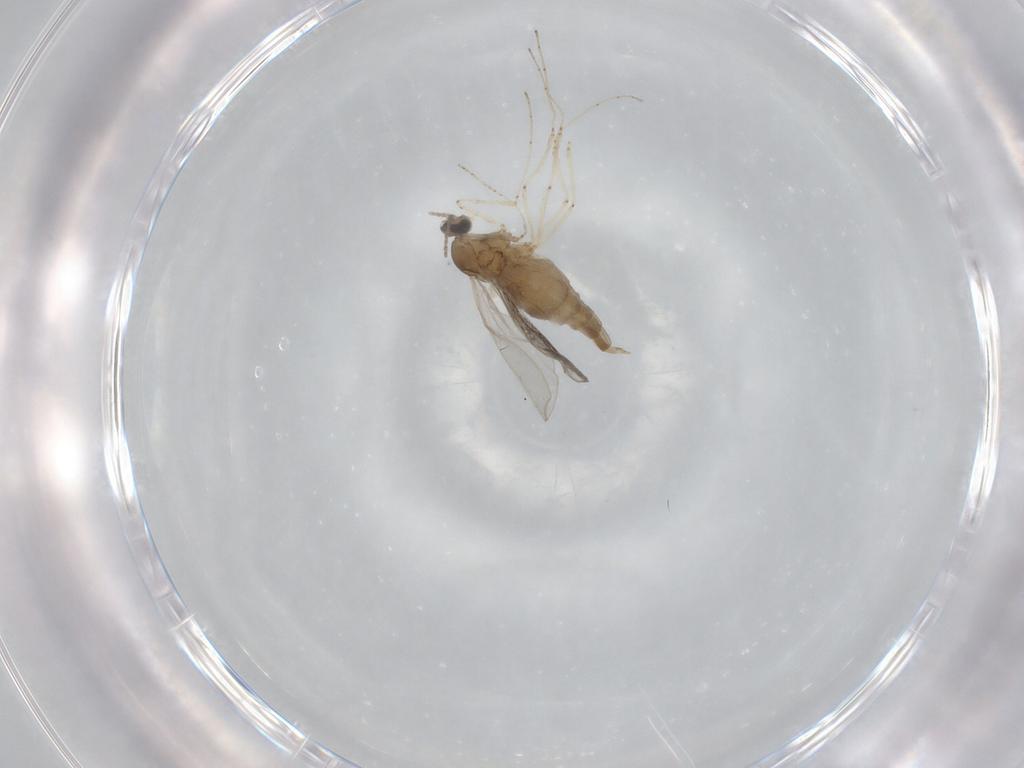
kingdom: Animalia
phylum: Arthropoda
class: Insecta
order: Diptera
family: Cecidomyiidae
